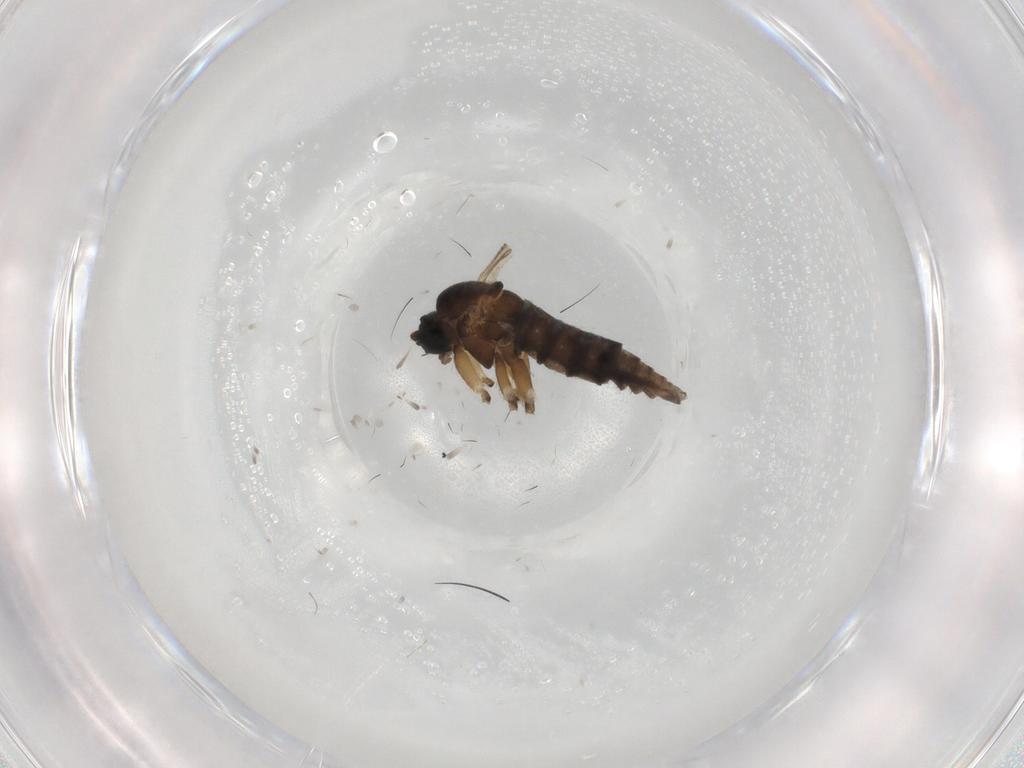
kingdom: Animalia
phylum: Arthropoda
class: Insecta
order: Diptera
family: Sciaridae
